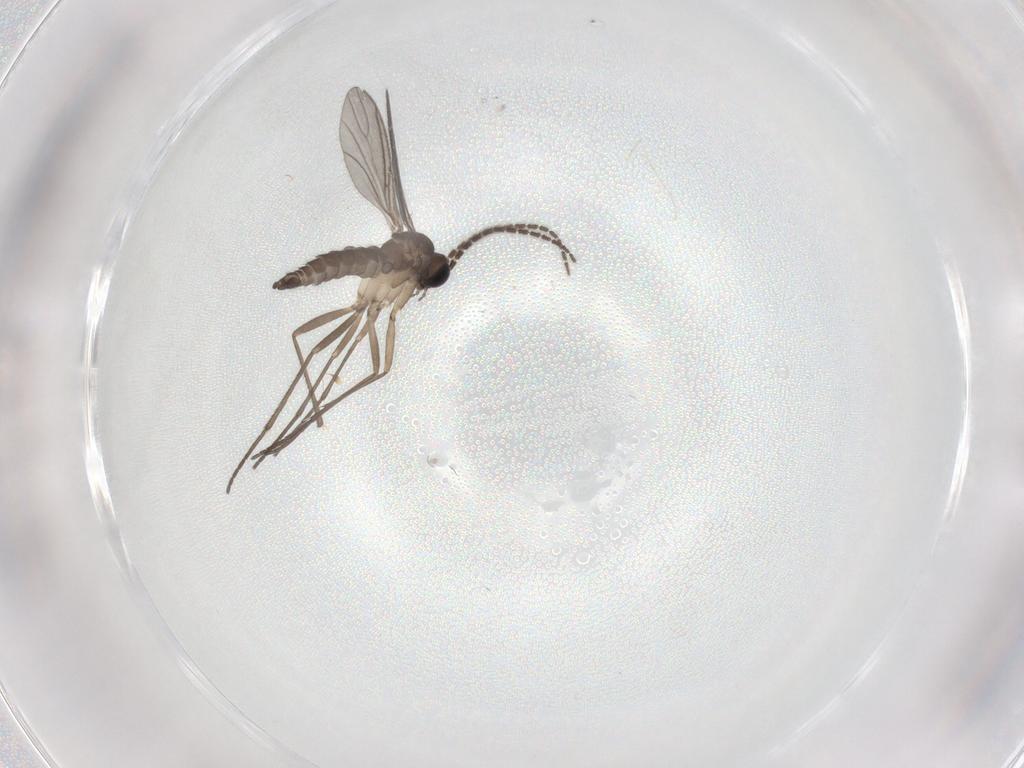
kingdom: Animalia
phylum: Arthropoda
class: Insecta
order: Diptera
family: Sciaridae
